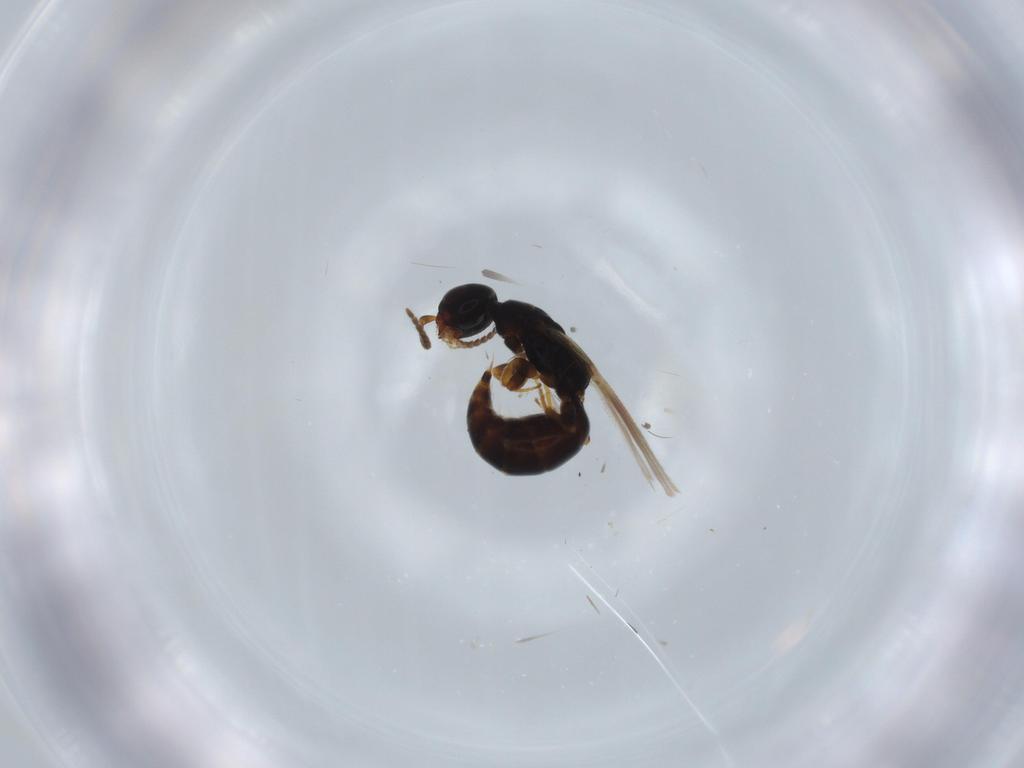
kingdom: Animalia
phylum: Arthropoda
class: Insecta
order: Hymenoptera
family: Bethylidae
